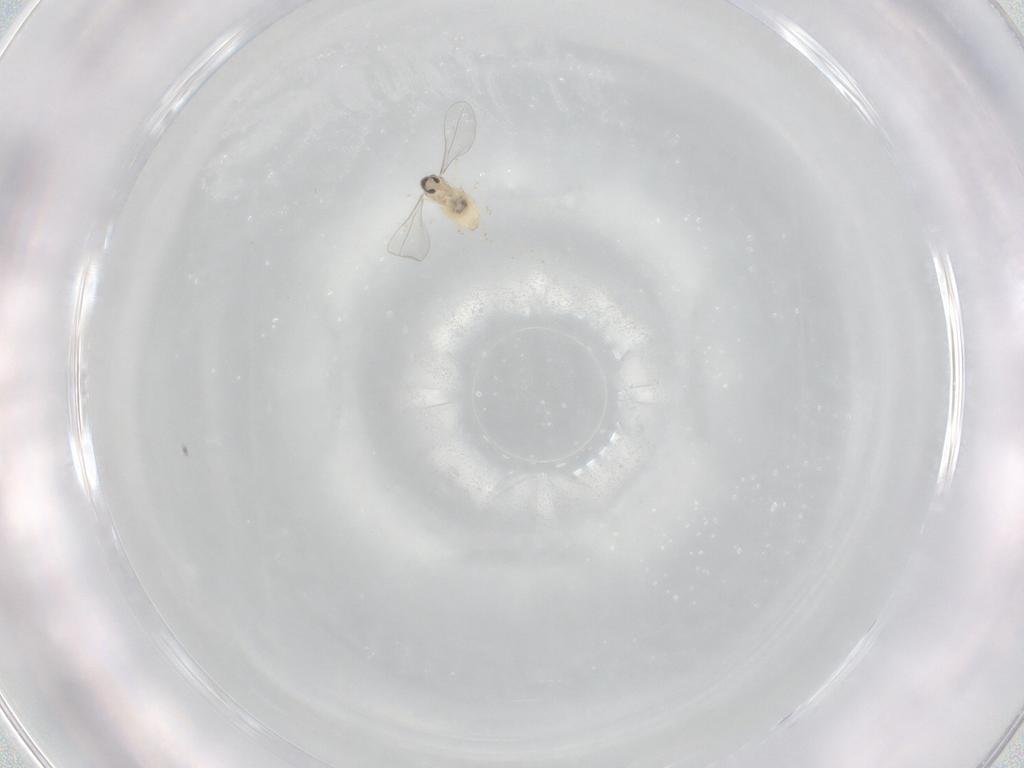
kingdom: Animalia
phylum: Arthropoda
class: Insecta
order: Diptera
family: Cecidomyiidae
